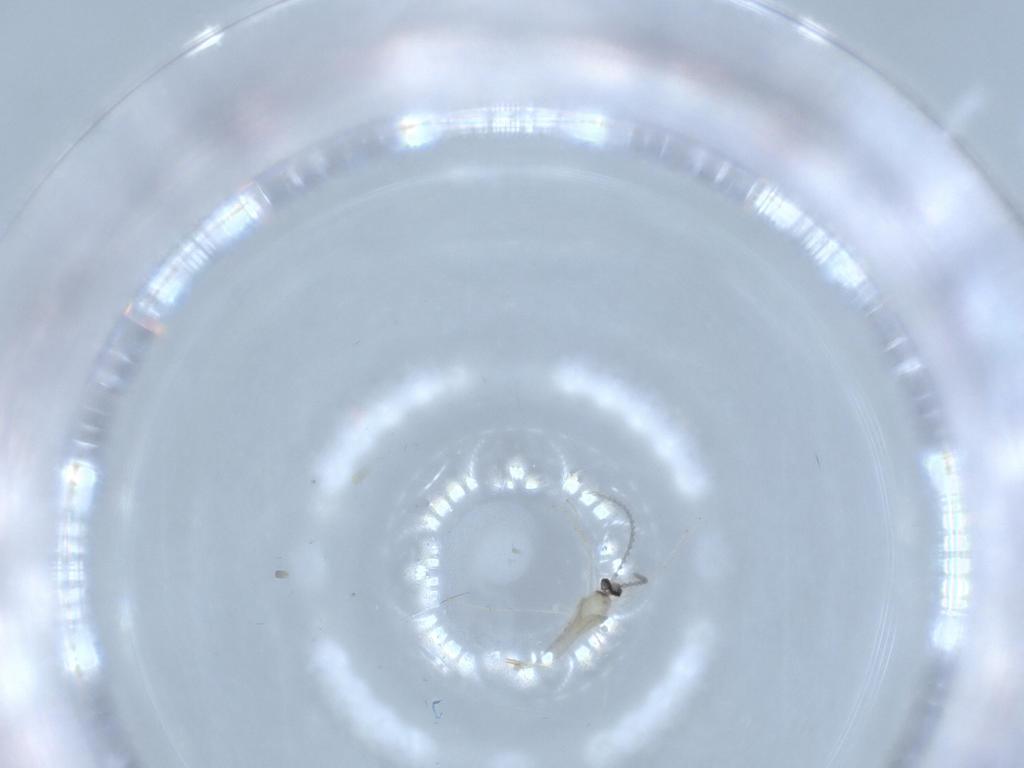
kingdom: Animalia
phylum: Arthropoda
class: Insecta
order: Diptera
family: Cecidomyiidae
